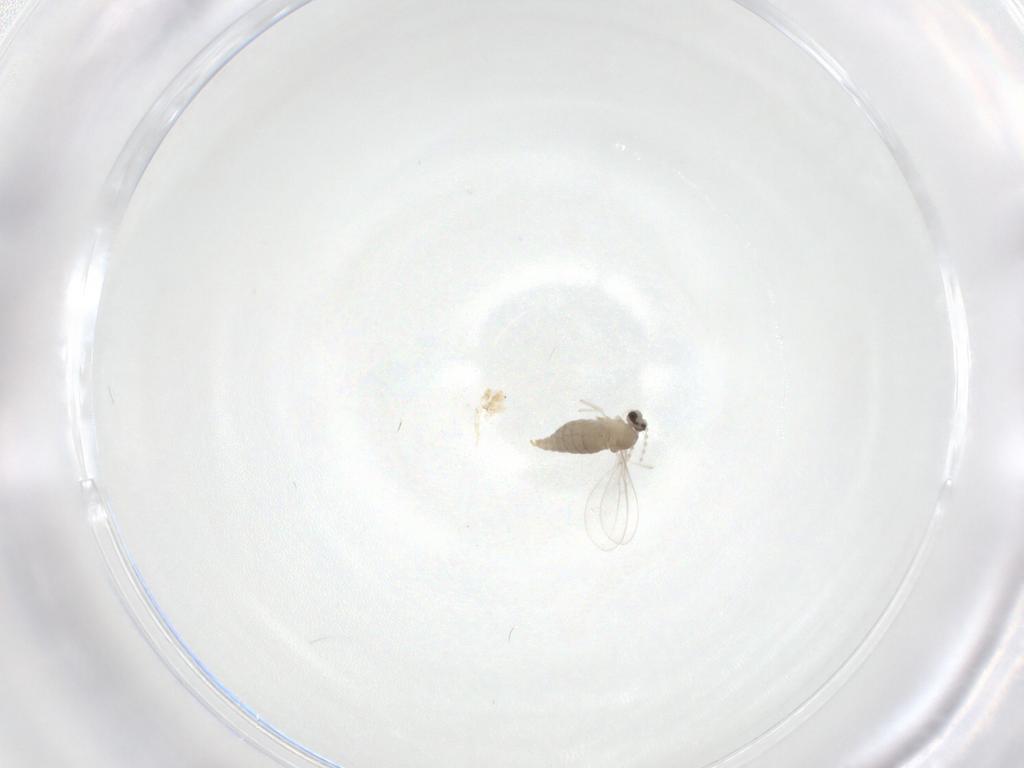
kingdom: Animalia
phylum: Arthropoda
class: Insecta
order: Diptera
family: Cecidomyiidae
